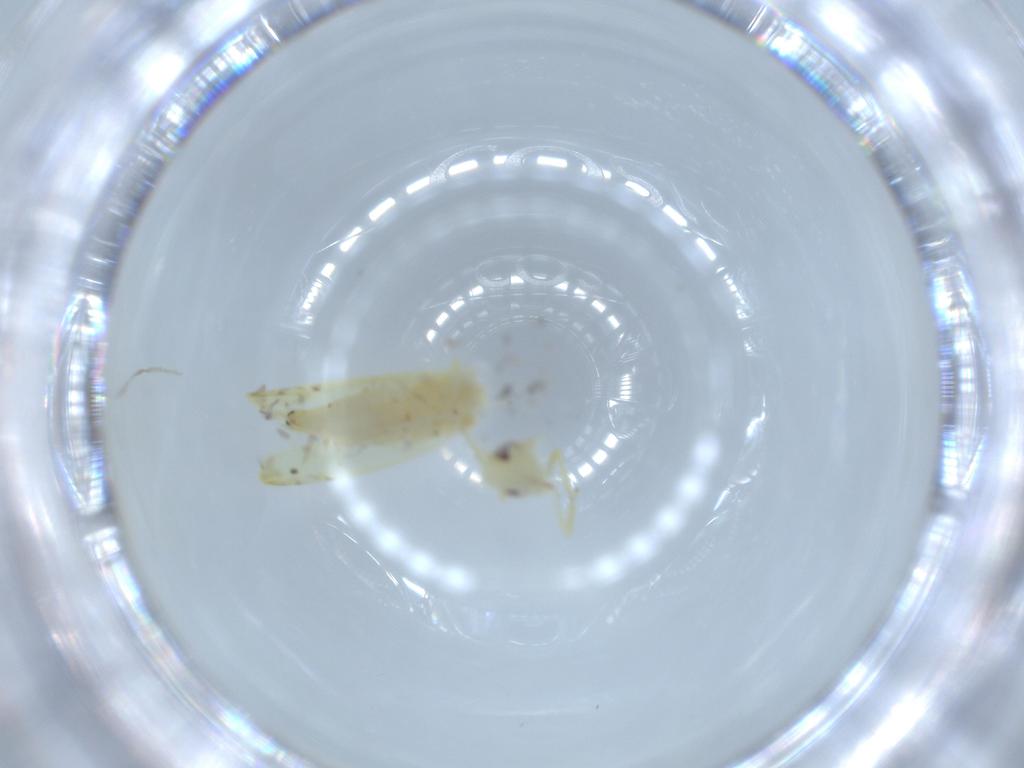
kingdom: Animalia
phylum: Arthropoda
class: Insecta
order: Hemiptera
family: Cicadellidae
